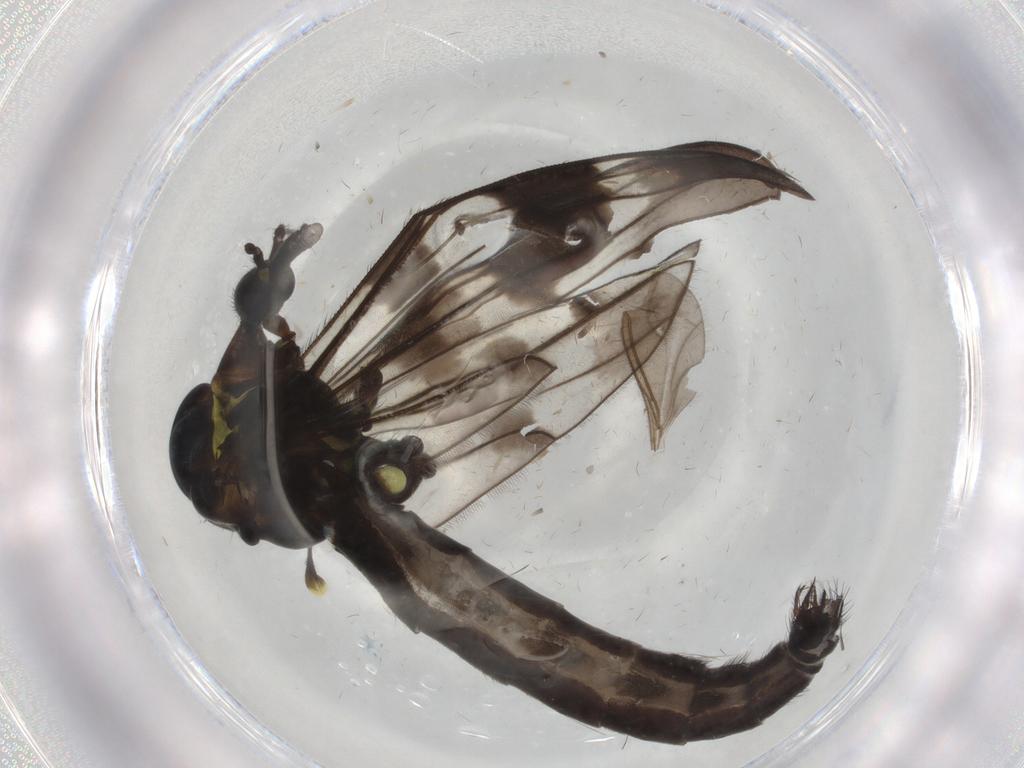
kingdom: Animalia
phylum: Arthropoda
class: Insecta
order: Diptera
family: Limoniidae
